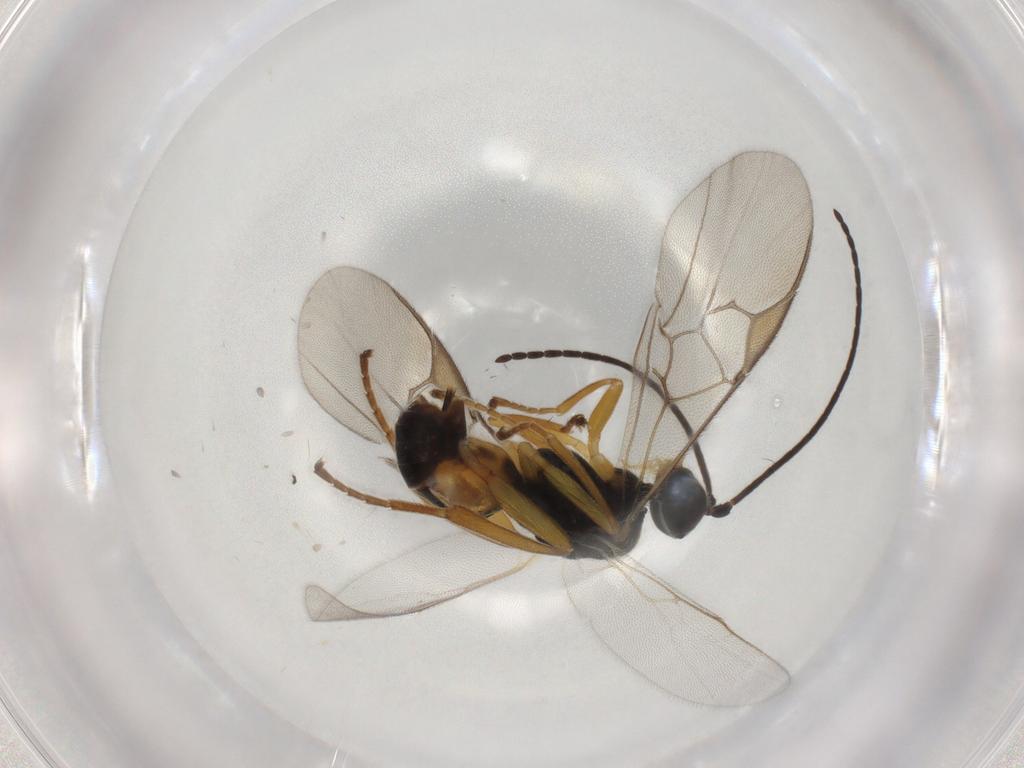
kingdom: Animalia
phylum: Arthropoda
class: Insecta
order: Hymenoptera
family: Braconidae
